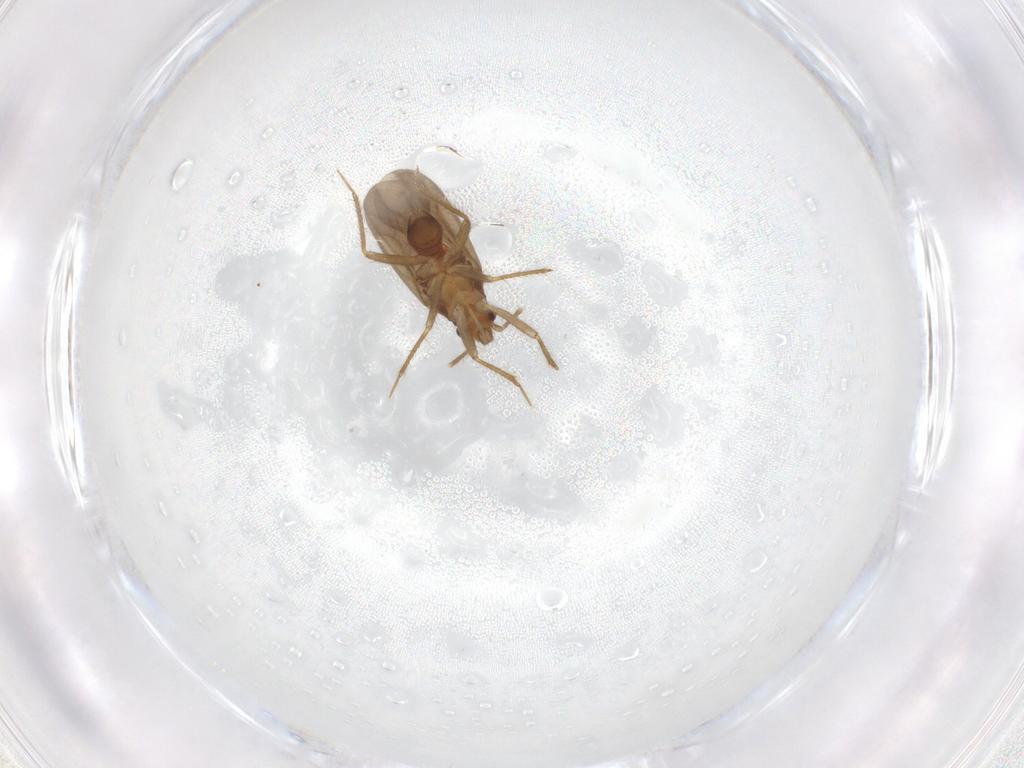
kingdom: Animalia
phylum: Arthropoda
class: Insecta
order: Hemiptera
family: Ceratocombidae
